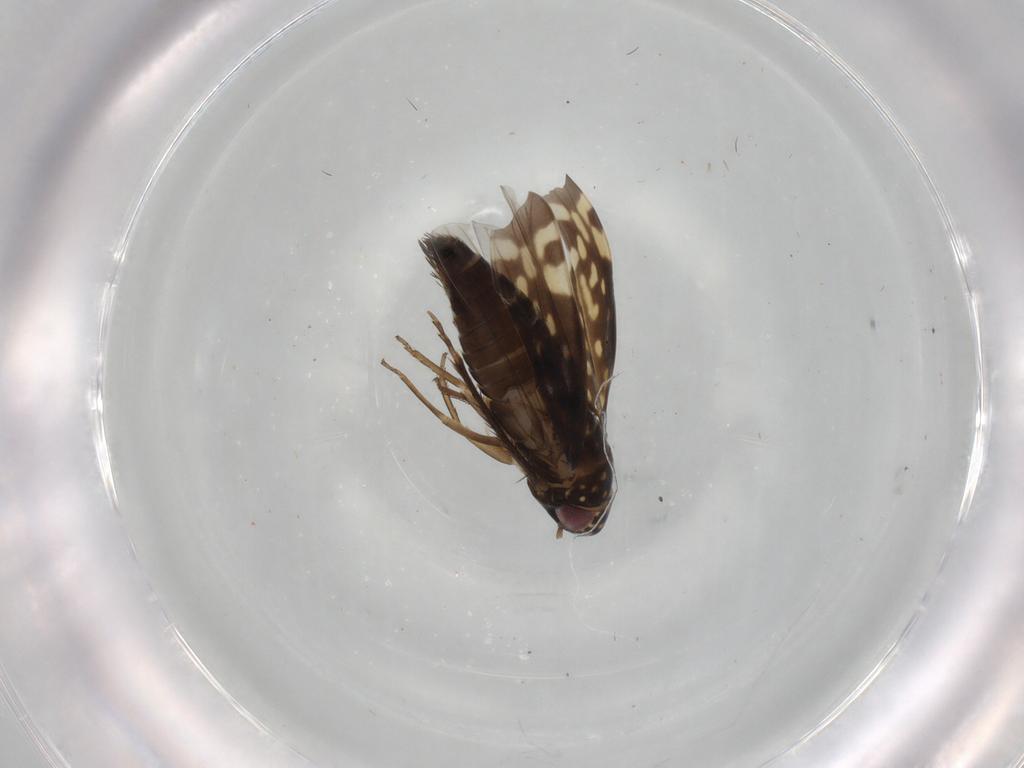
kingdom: Animalia
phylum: Arthropoda
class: Insecta
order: Hemiptera
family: Cicadellidae
